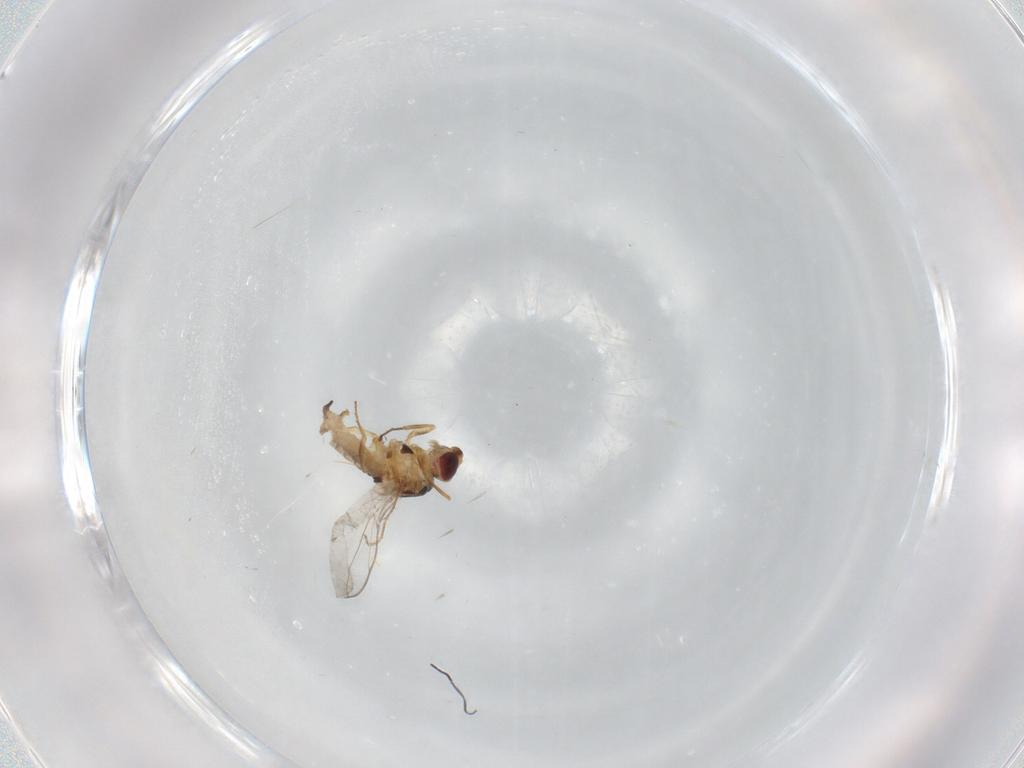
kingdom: Animalia
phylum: Arthropoda
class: Insecta
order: Diptera
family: Chloropidae
